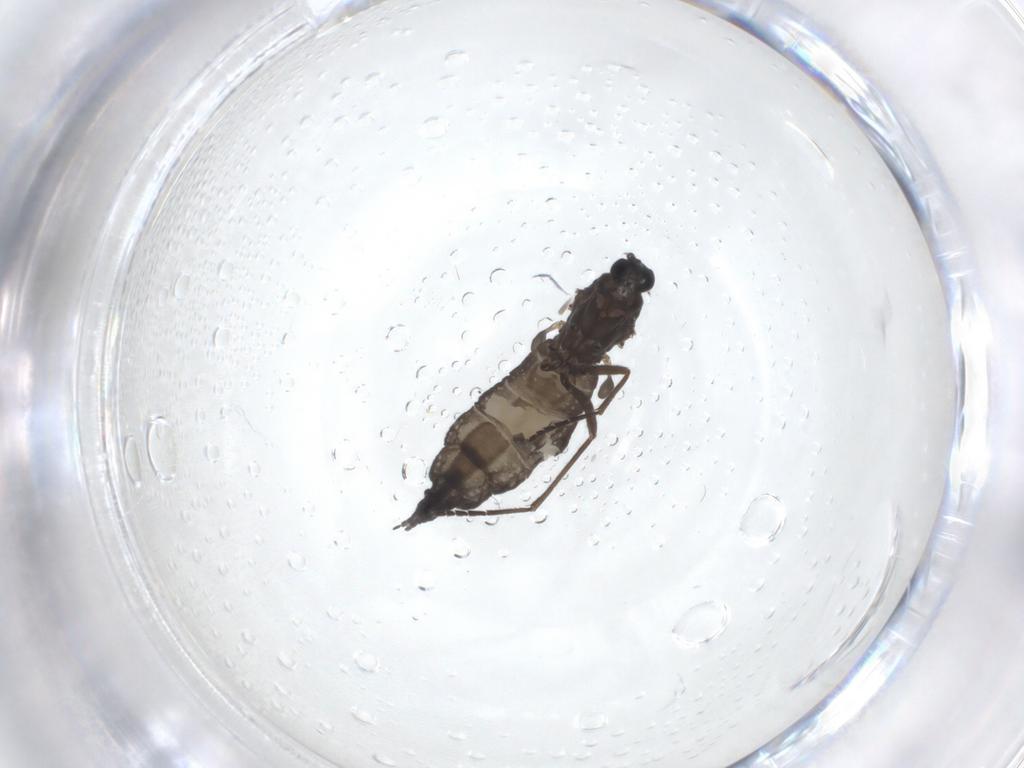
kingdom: Animalia
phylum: Arthropoda
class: Insecta
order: Diptera
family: Sciaridae
